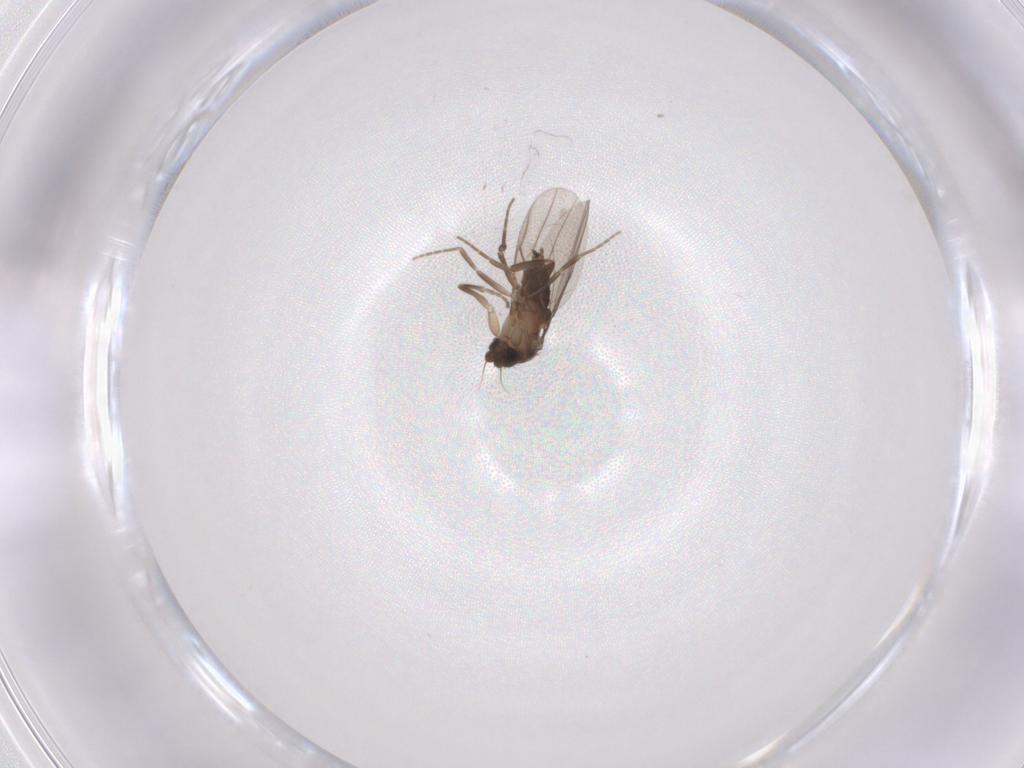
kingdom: Animalia
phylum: Arthropoda
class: Insecta
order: Diptera
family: Phoridae
